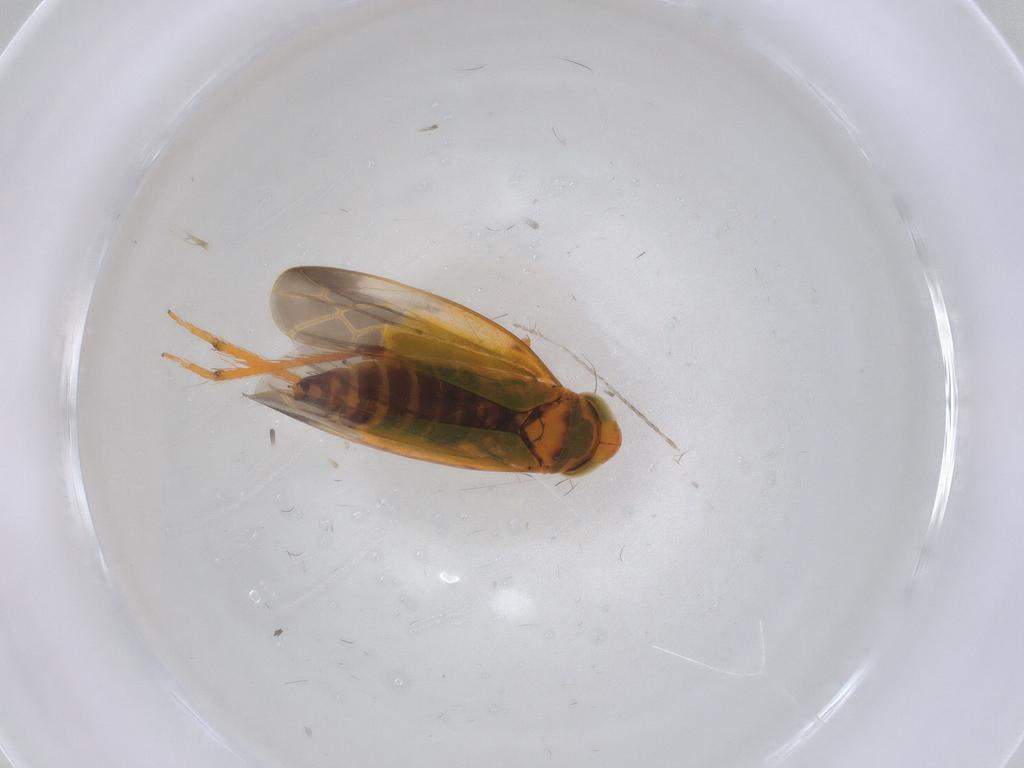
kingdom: Animalia
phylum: Arthropoda
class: Insecta
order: Hemiptera
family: Cicadellidae
